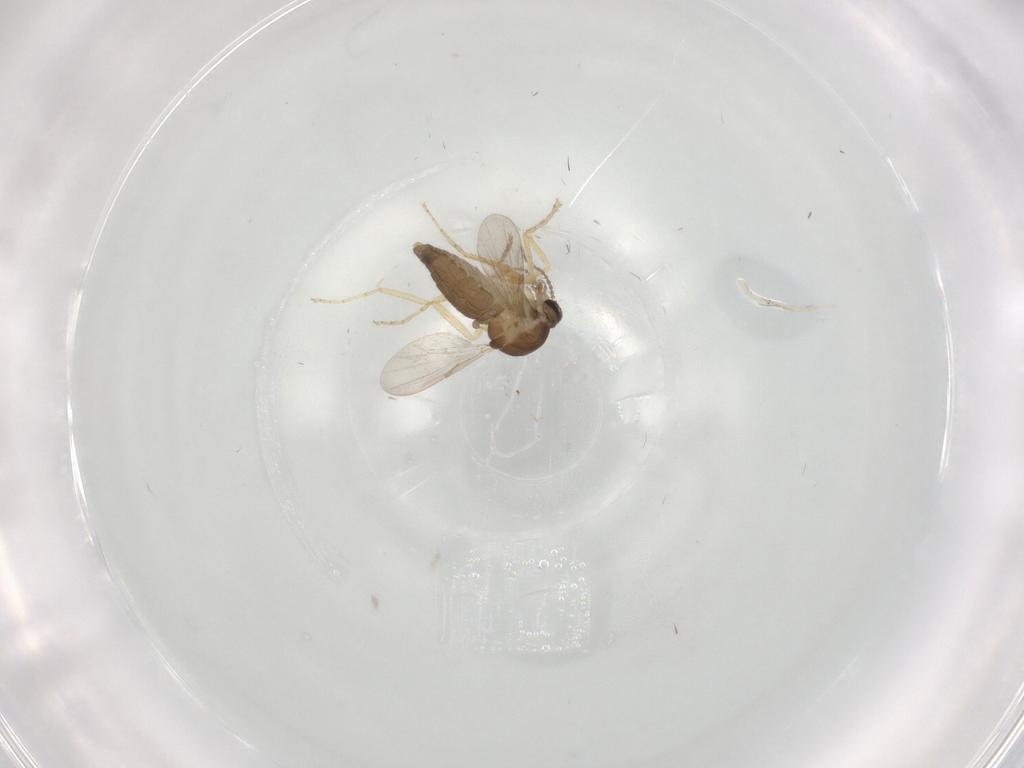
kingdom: Animalia
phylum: Arthropoda
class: Insecta
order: Diptera
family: Ceratopogonidae
